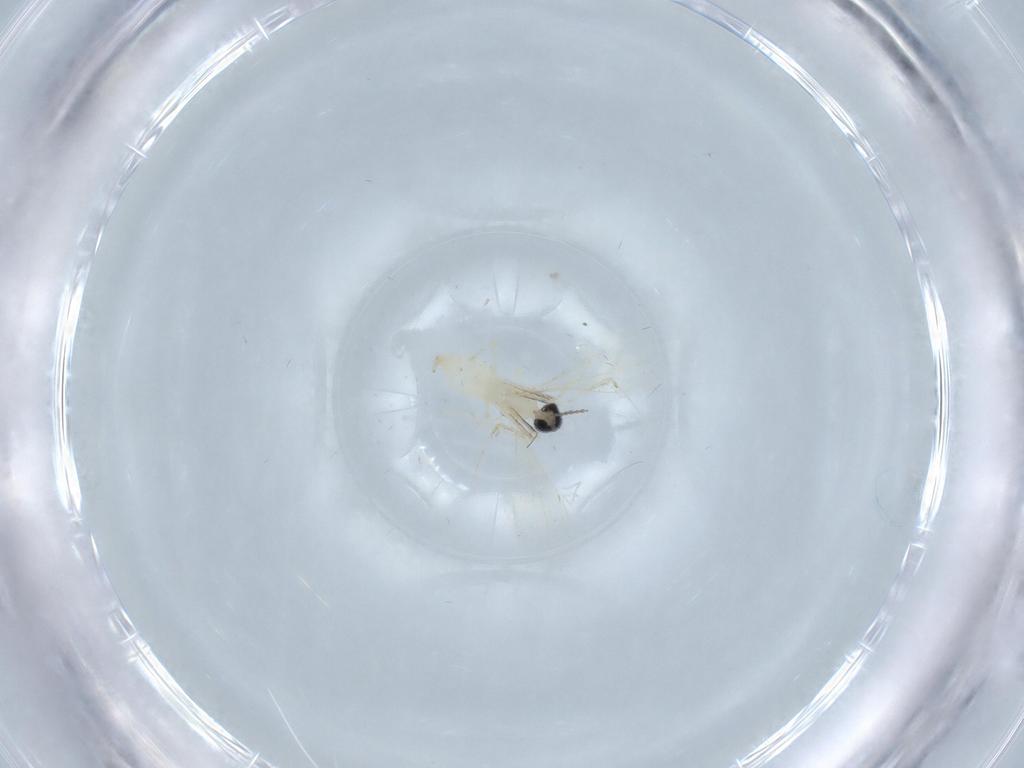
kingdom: Animalia
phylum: Arthropoda
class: Insecta
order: Diptera
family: Cecidomyiidae
